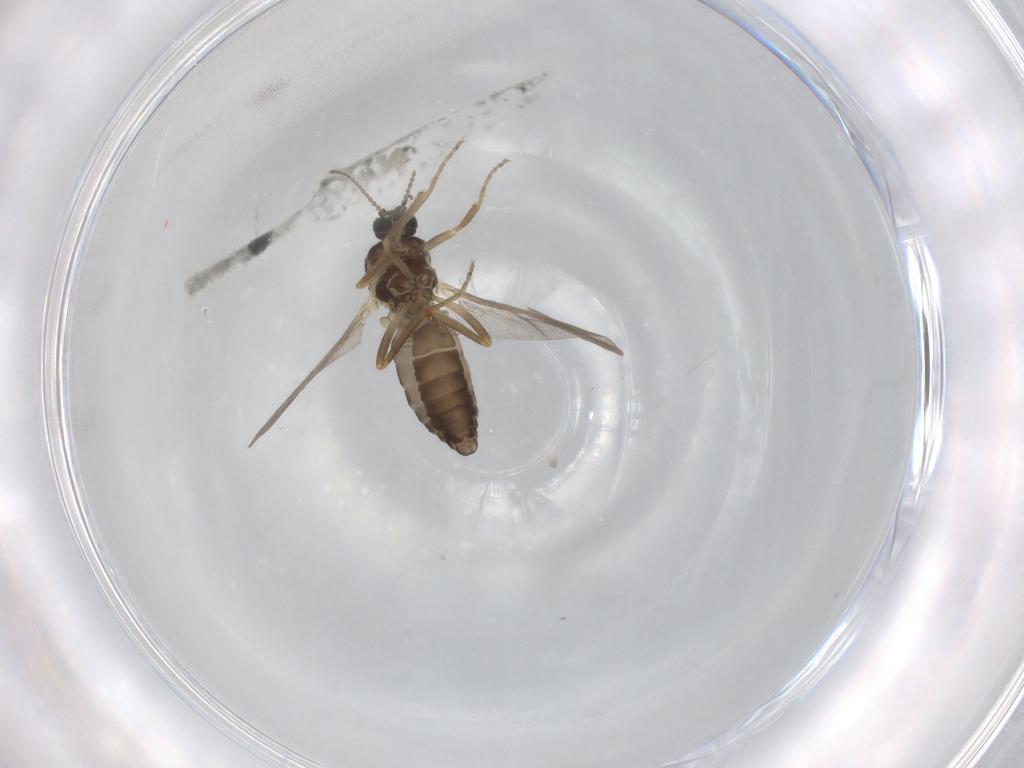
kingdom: Animalia
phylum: Arthropoda
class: Insecta
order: Diptera
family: Ceratopogonidae
